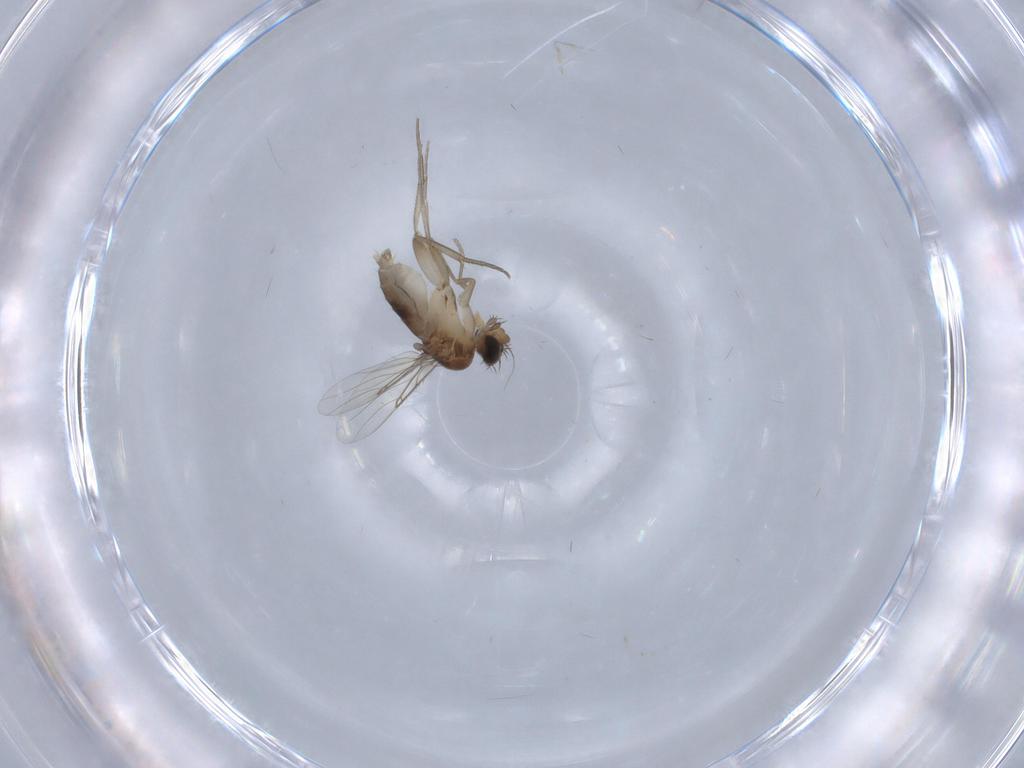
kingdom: Animalia
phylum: Arthropoda
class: Insecta
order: Diptera
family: Phoridae
